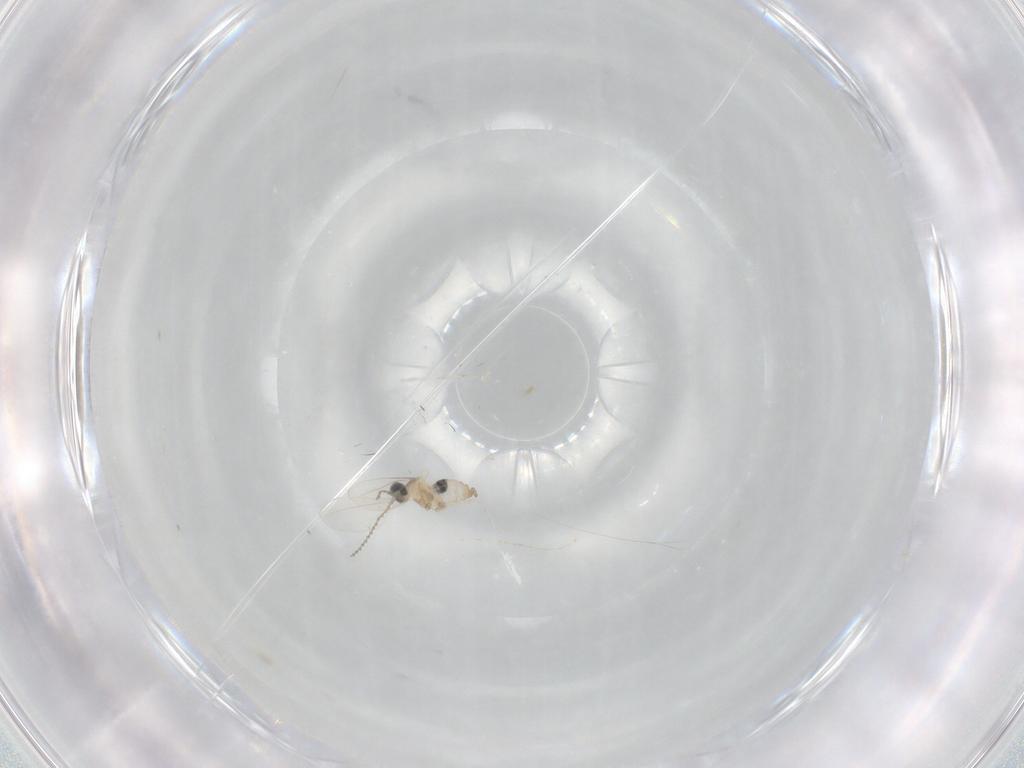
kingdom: Animalia
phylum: Arthropoda
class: Insecta
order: Diptera
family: Cecidomyiidae
